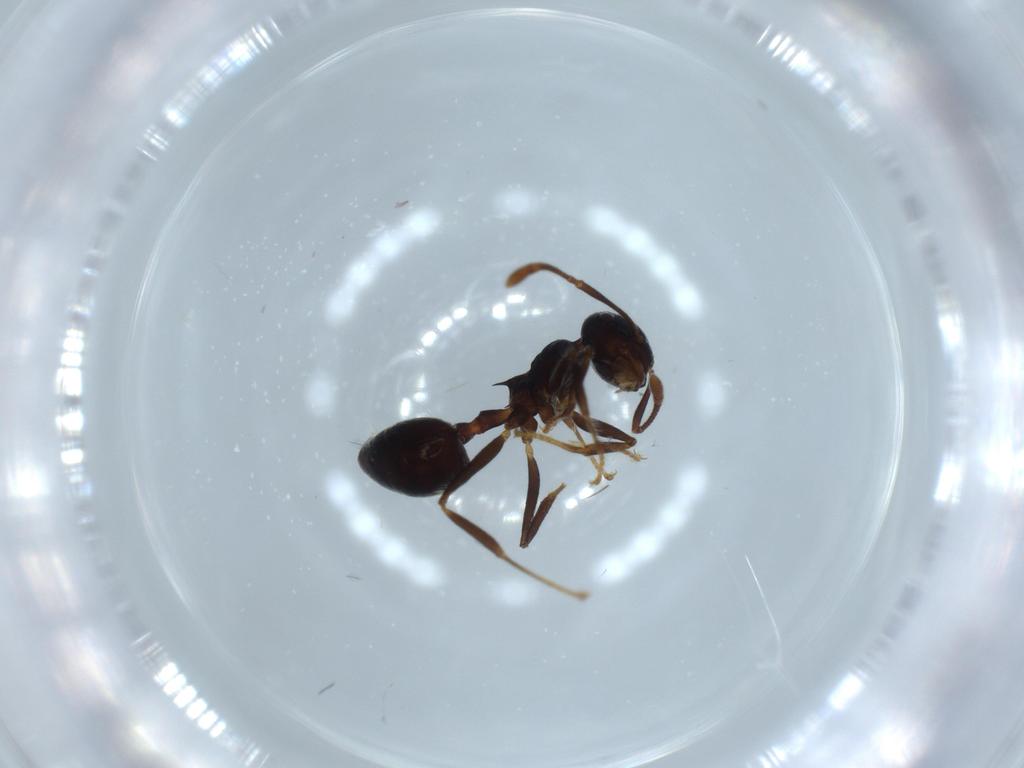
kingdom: Animalia
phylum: Arthropoda
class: Insecta
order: Hymenoptera
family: Formicidae
